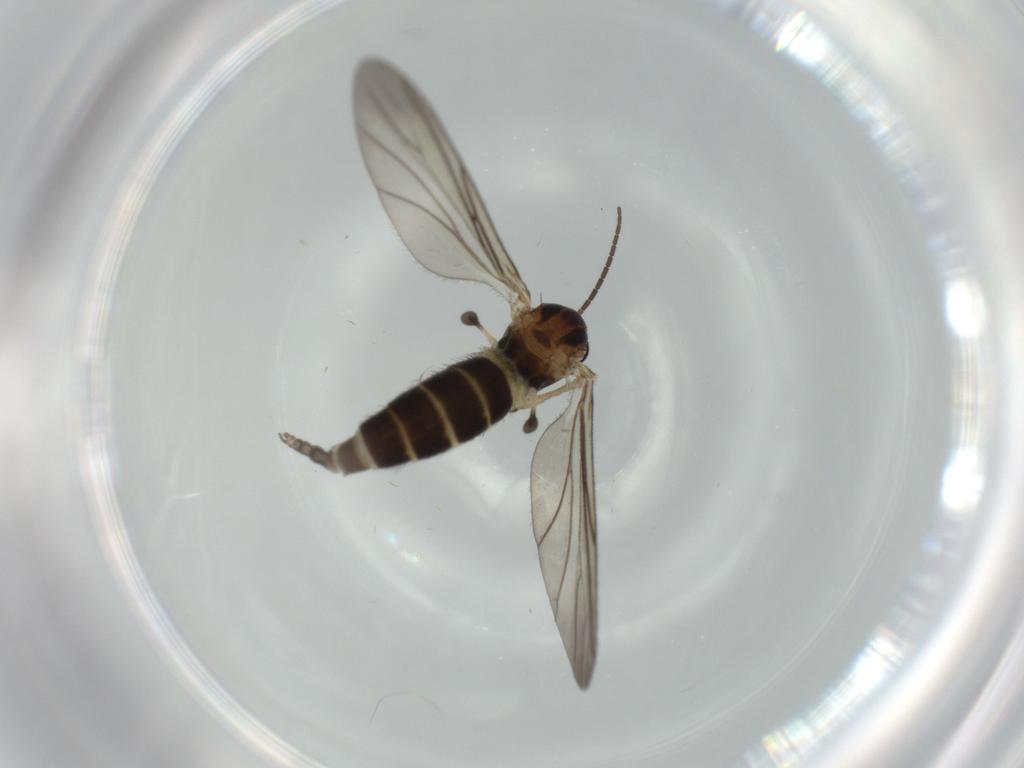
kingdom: Animalia
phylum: Arthropoda
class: Insecta
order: Diptera
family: Sciaridae
